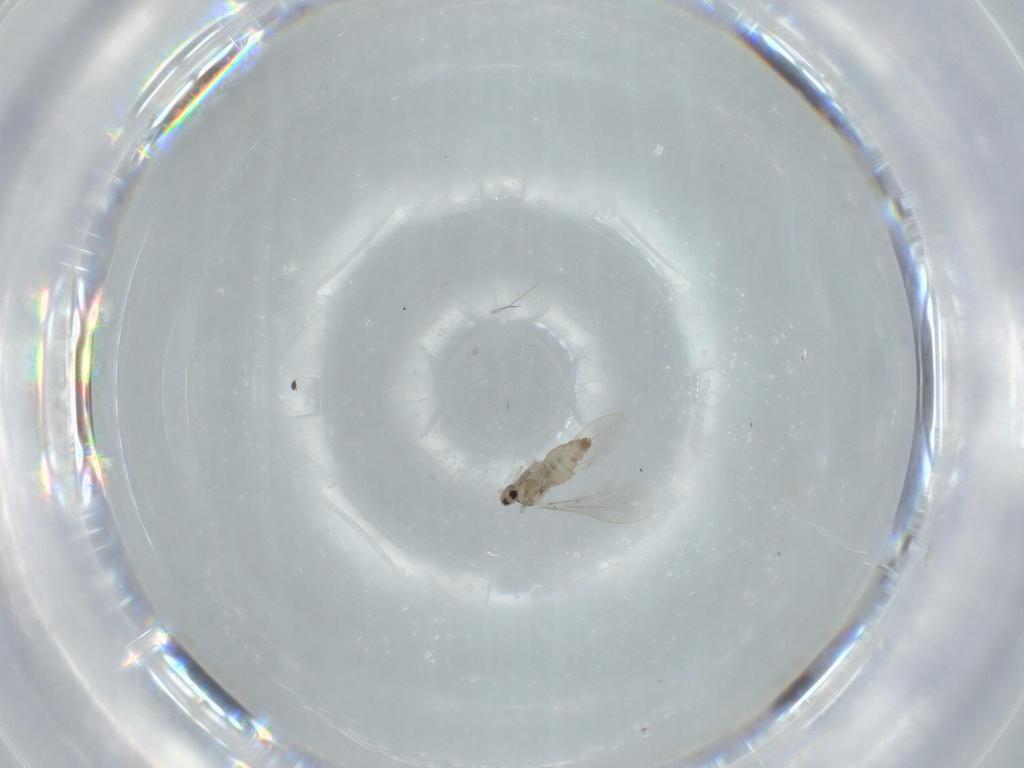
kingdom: Animalia
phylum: Arthropoda
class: Insecta
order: Diptera
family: Cecidomyiidae
